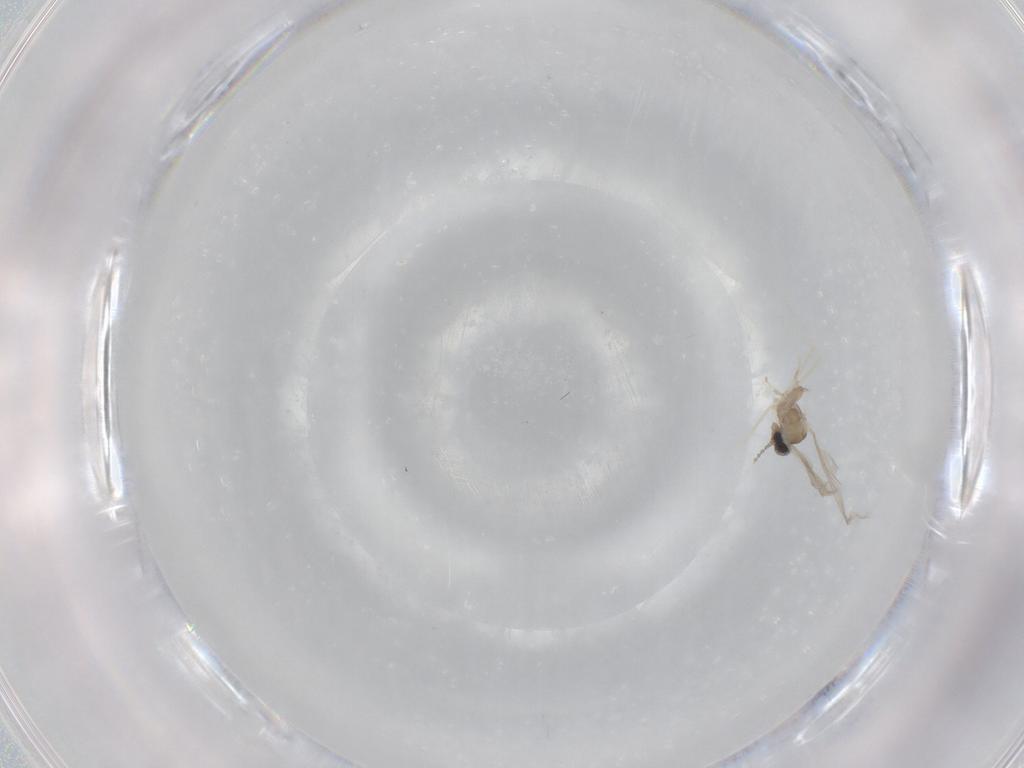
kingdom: Animalia
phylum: Arthropoda
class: Insecta
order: Diptera
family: Cecidomyiidae
